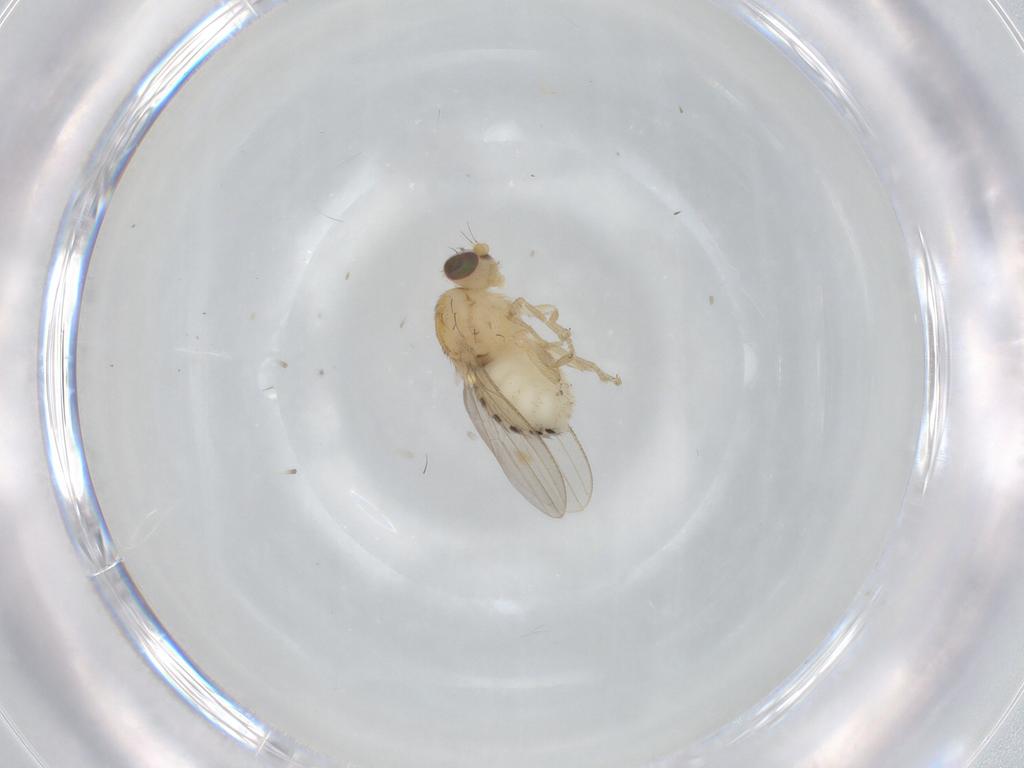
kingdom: Animalia
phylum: Arthropoda
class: Insecta
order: Diptera
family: Chyromyidae
